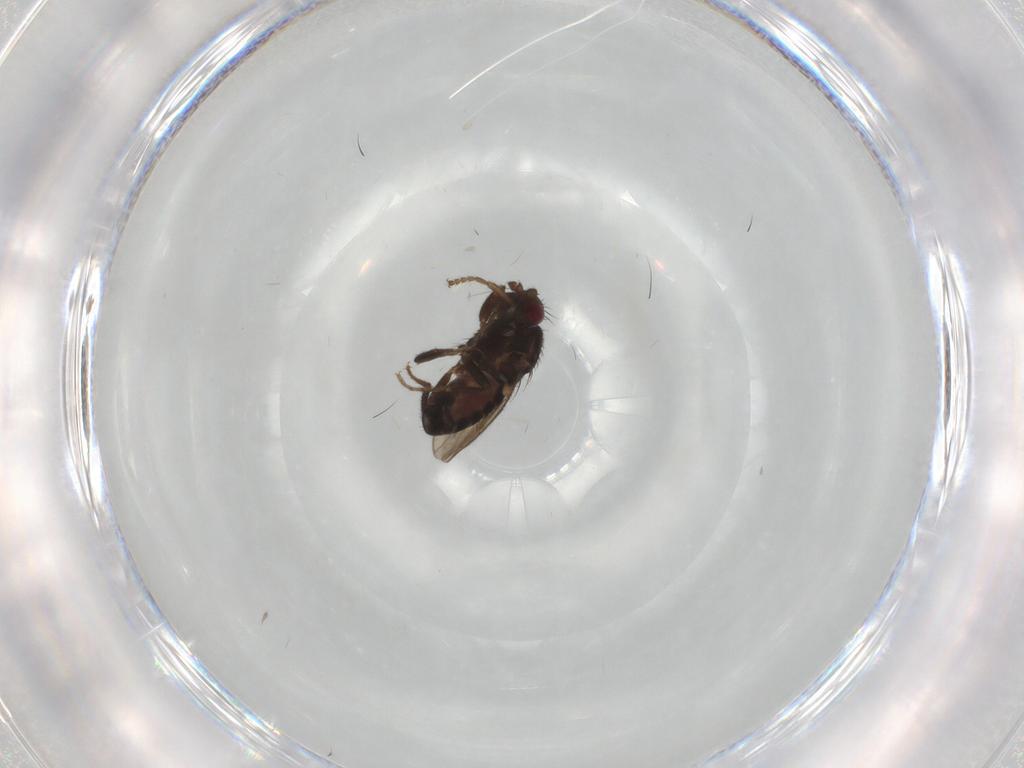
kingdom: Animalia
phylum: Arthropoda
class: Insecta
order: Diptera
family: Sphaeroceridae
